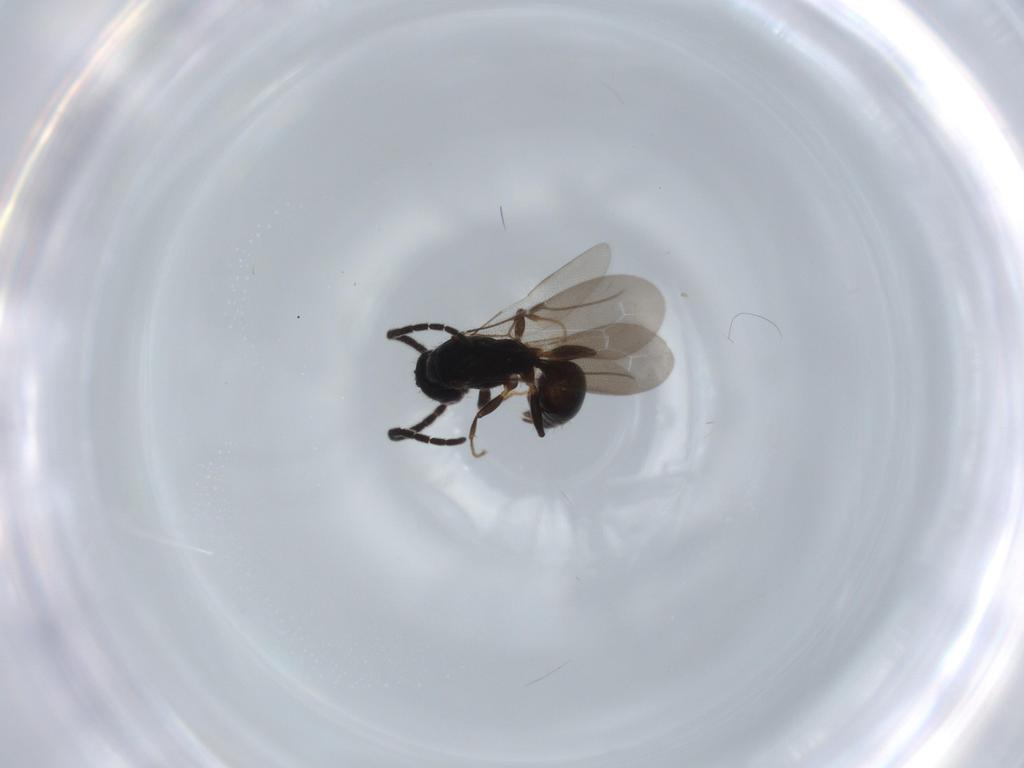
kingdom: Animalia
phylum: Arthropoda
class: Insecta
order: Hymenoptera
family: Bethylidae
